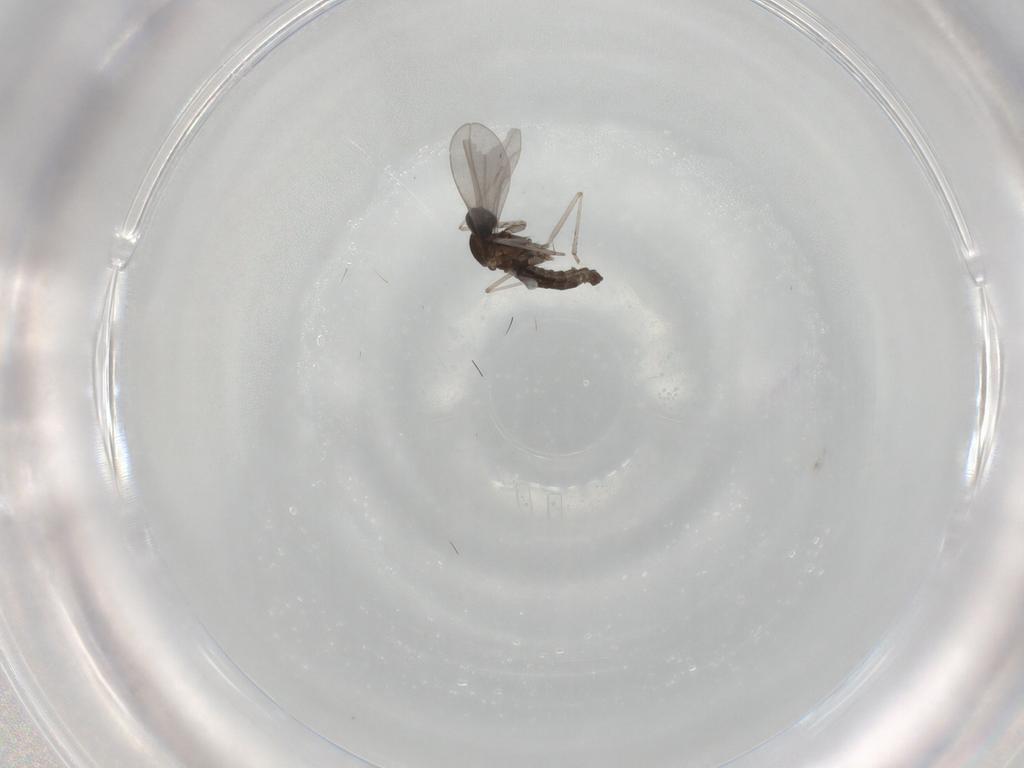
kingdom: Animalia
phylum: Arthropoda
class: Insecta
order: Diptera
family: Cecidomyiidae
